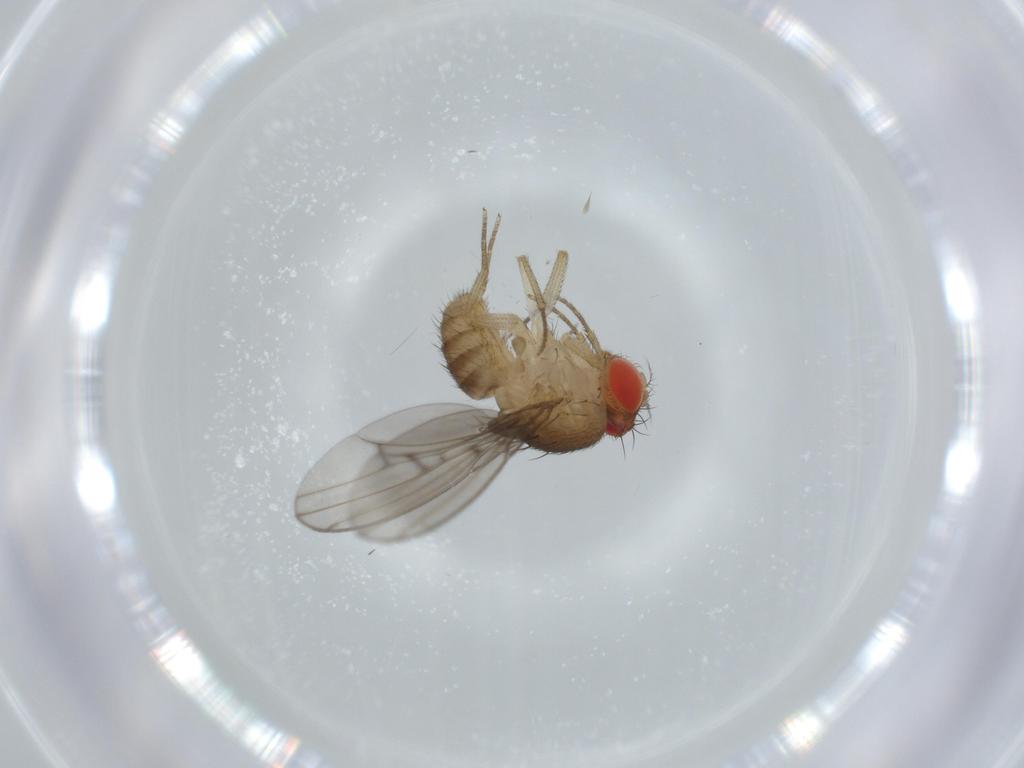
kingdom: Animalia
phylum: Arthropoda
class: Insecta
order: Diptera
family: Drosophilidae
